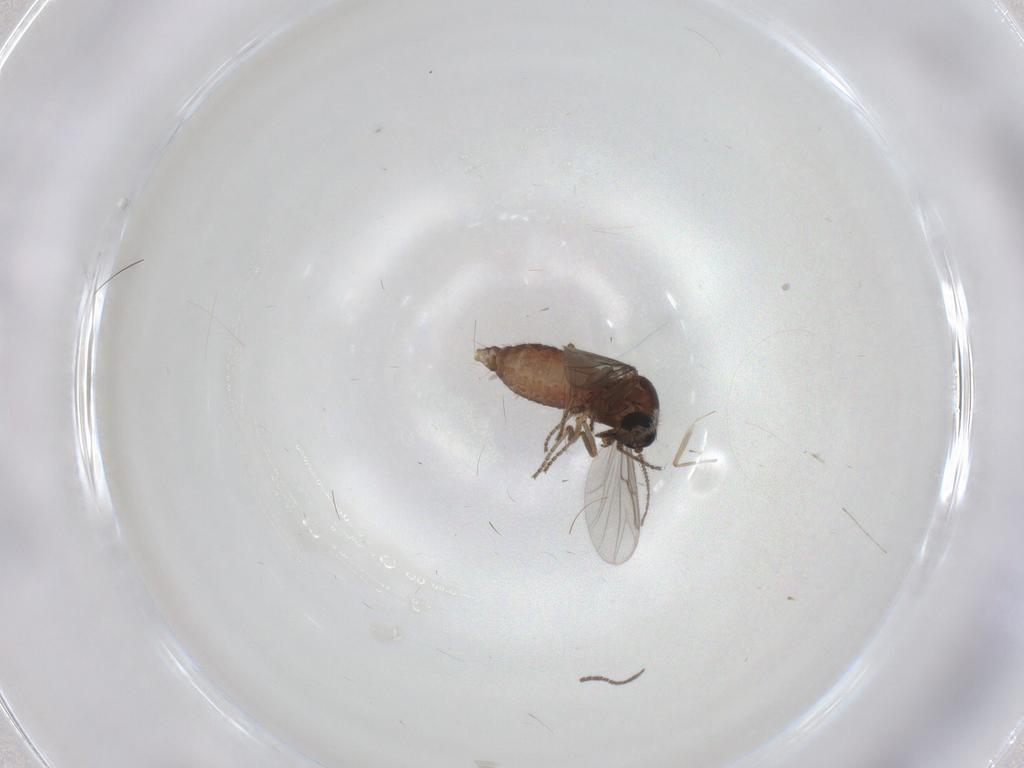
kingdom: Animalia
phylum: Arthropoda
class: Insecta
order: Diptera
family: Sciaridae
